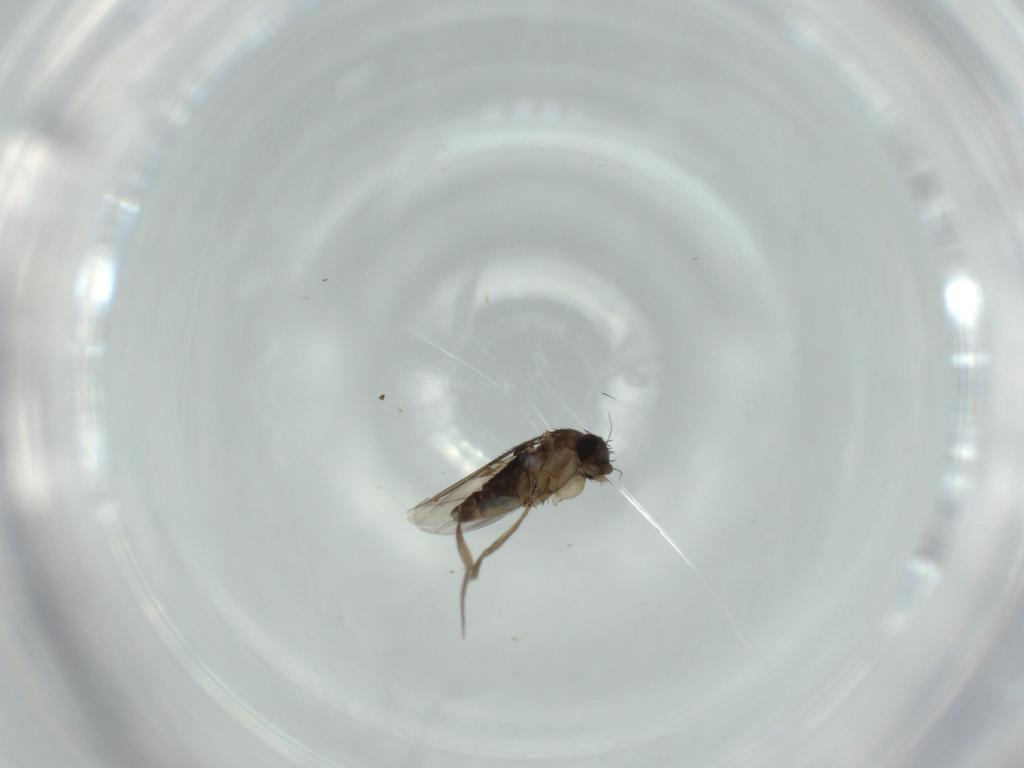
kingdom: Animalia
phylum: Arthropoda
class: Insecta
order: Diptera
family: Phoridae
